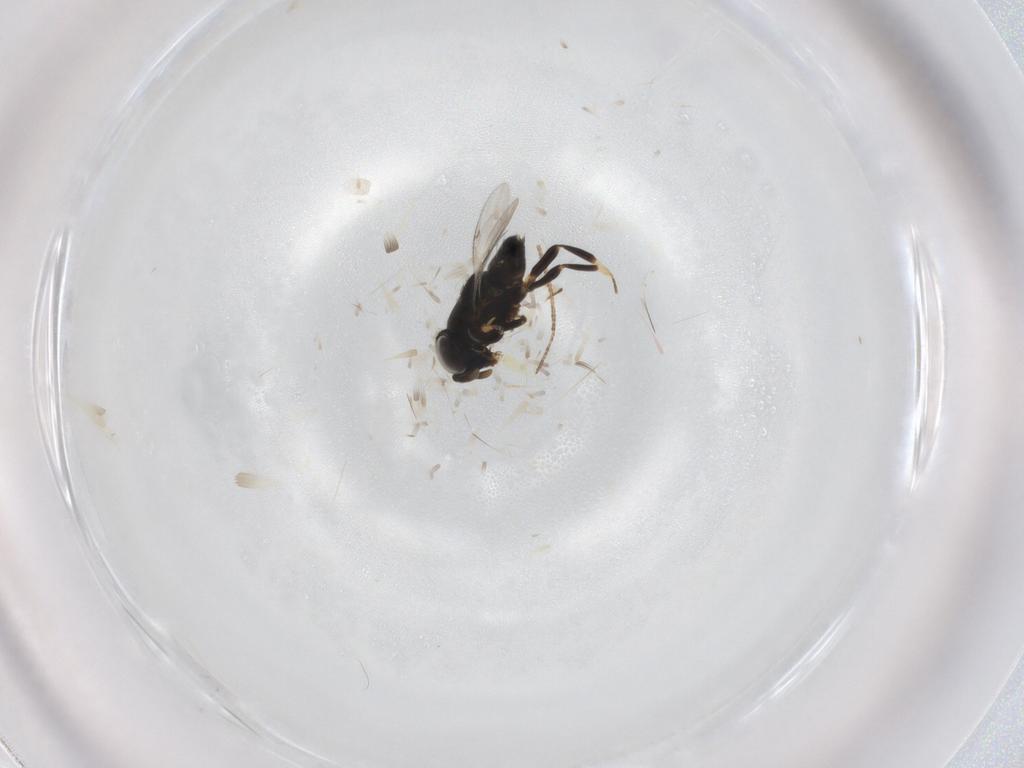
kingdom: Animalia
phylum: Arthropoda
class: Insecta
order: Hymenoptera
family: Encyrtidae
